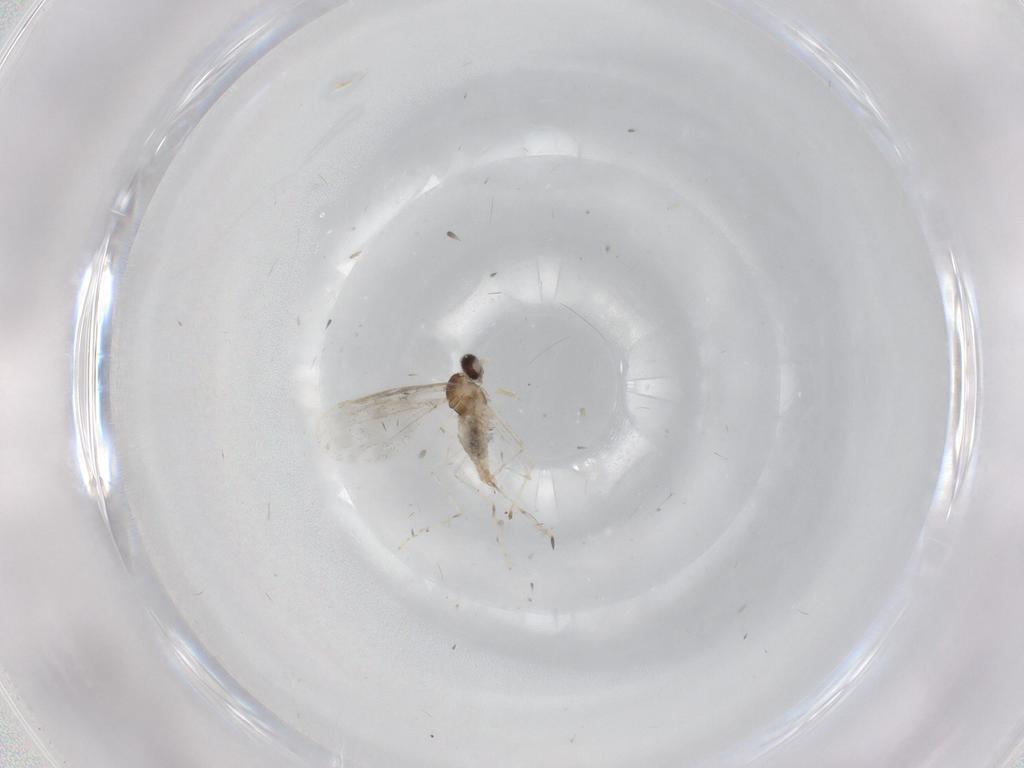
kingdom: Animalia
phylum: Arthropoda
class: Insecta
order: Diptera
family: Cecidomyiidae
